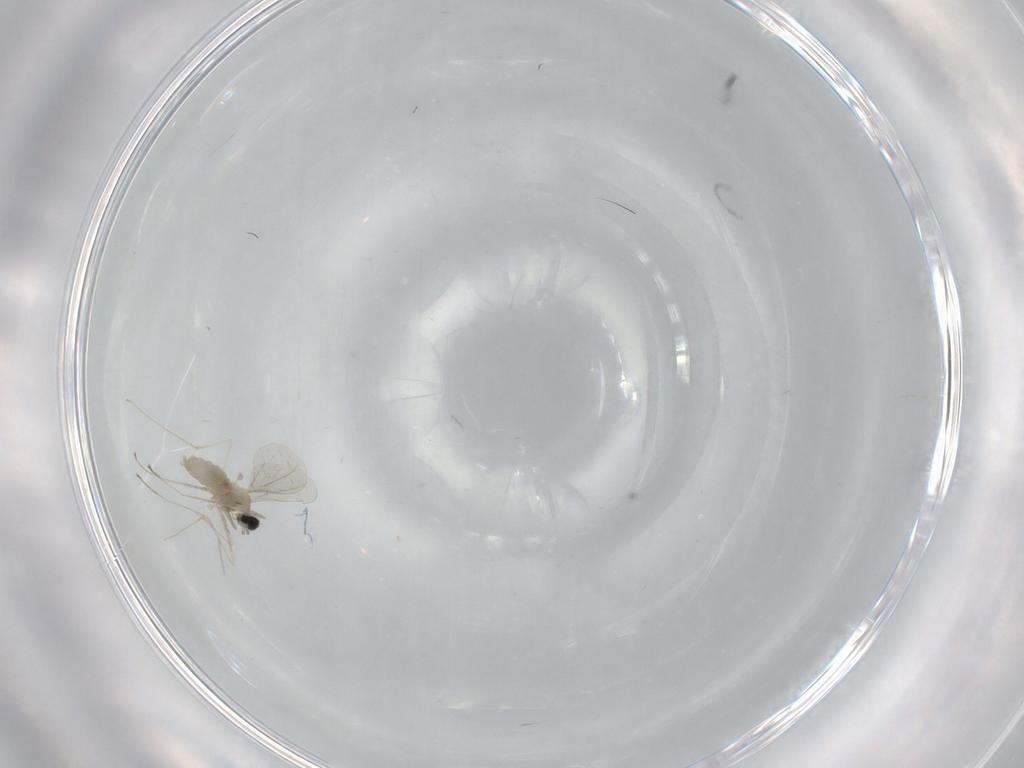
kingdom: Animalia
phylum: Arthropoda
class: Insecta
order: Diptera
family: Cecidomyiidae
